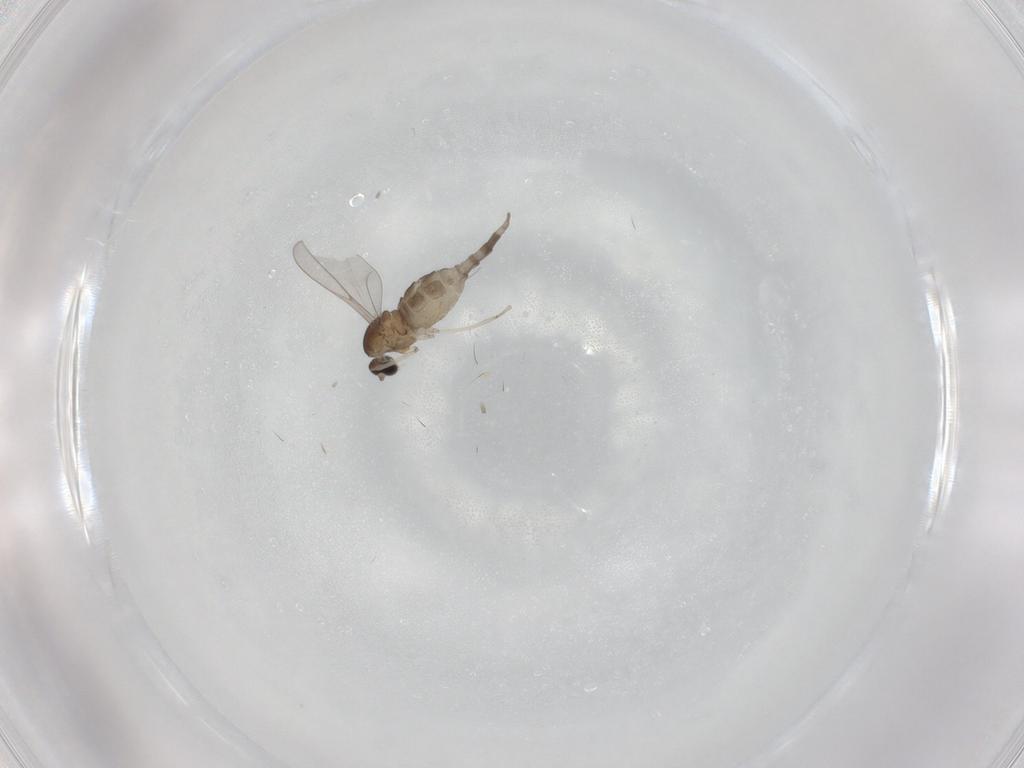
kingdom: Animalia
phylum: Arthropoda
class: Insecta
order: Diptera
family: Cecidomyiidae
